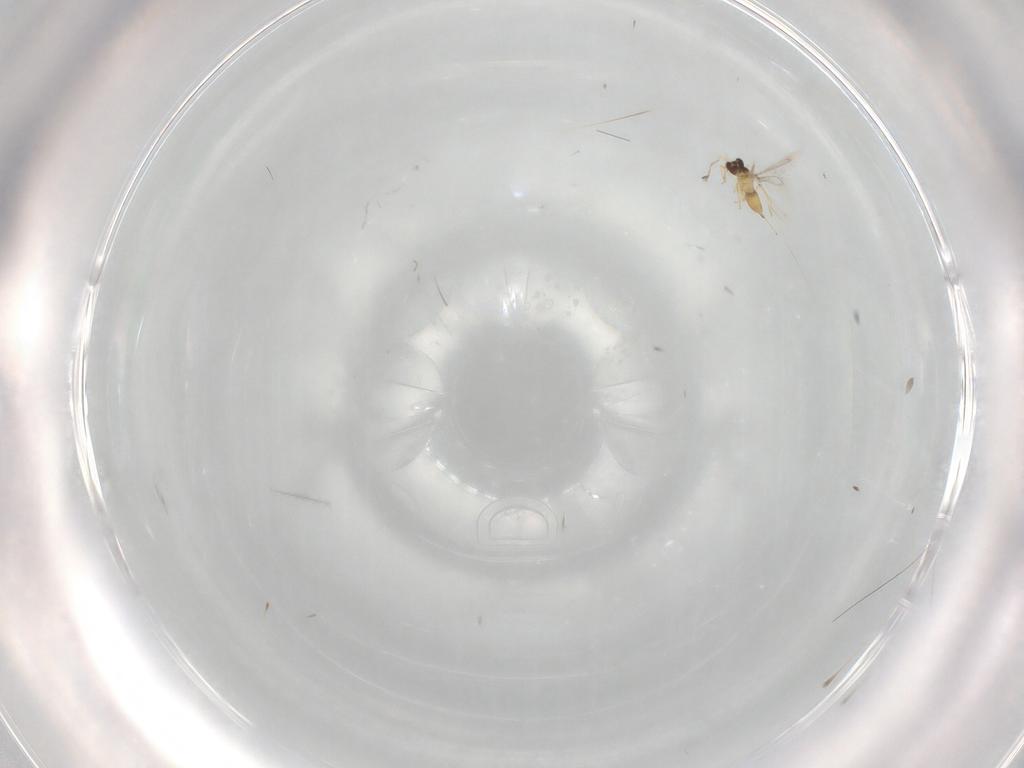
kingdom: Animalia
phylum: Arthropoda
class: Insecta
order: Hymenoptera
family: Mymaridae
